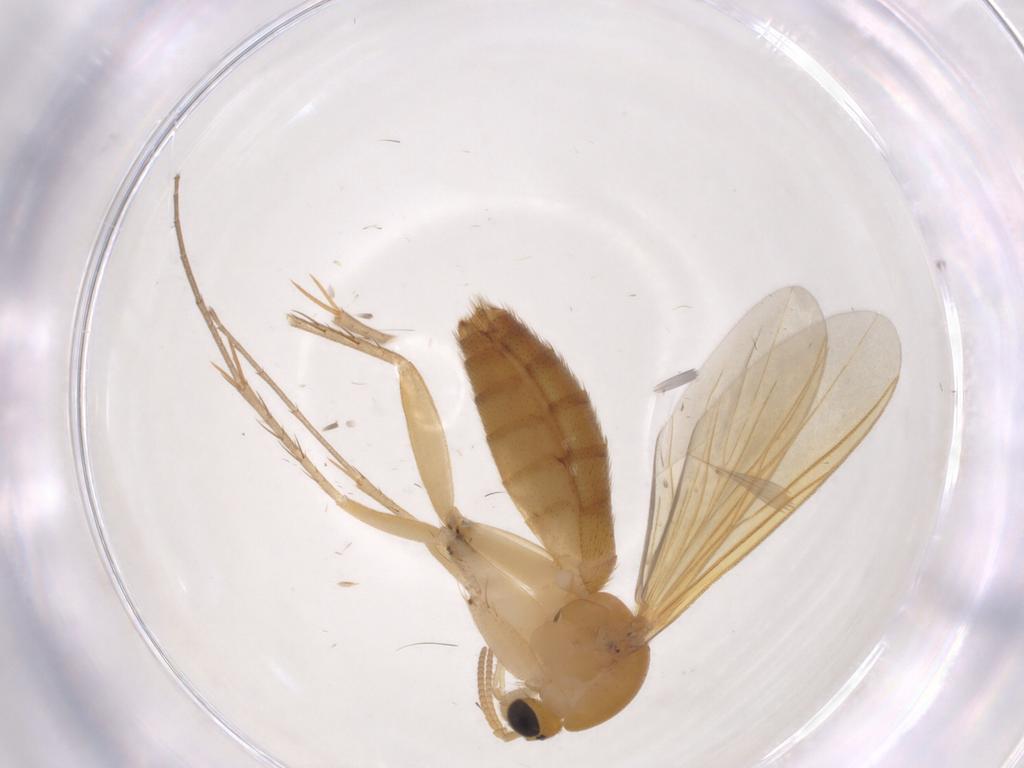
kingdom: Animalia
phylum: Arthropoda
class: Insecta
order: Diptera
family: Mycetophilidae
